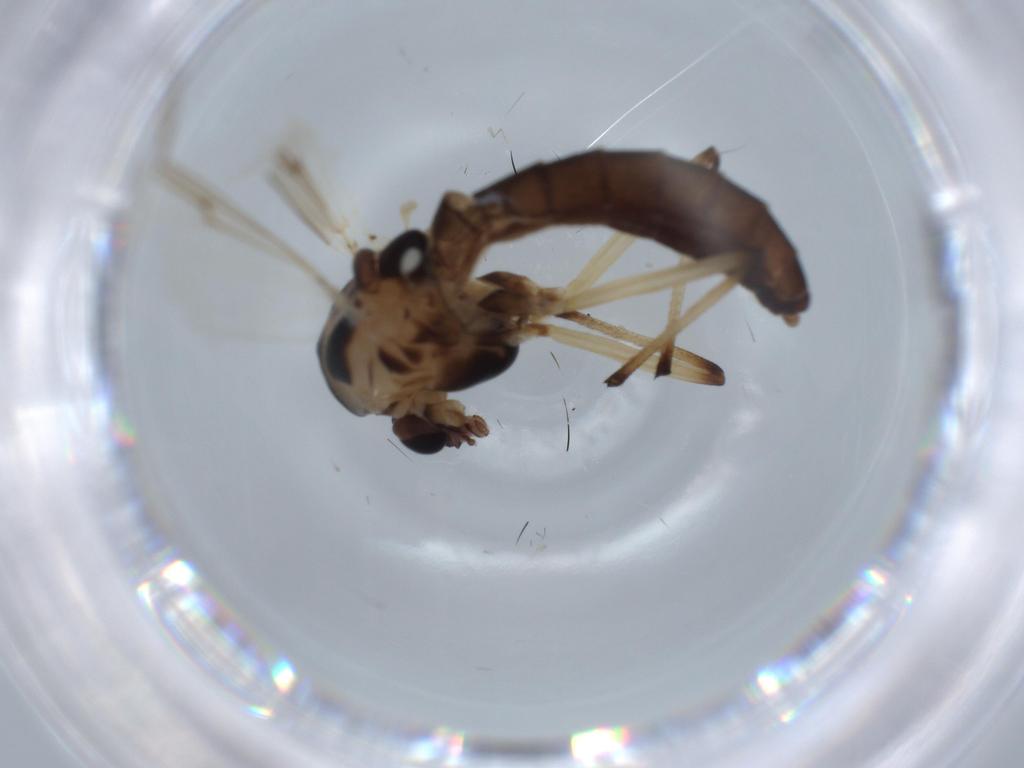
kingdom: Animalia
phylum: Arthropoda
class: Insecta
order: Diptera
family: Chironomidae
